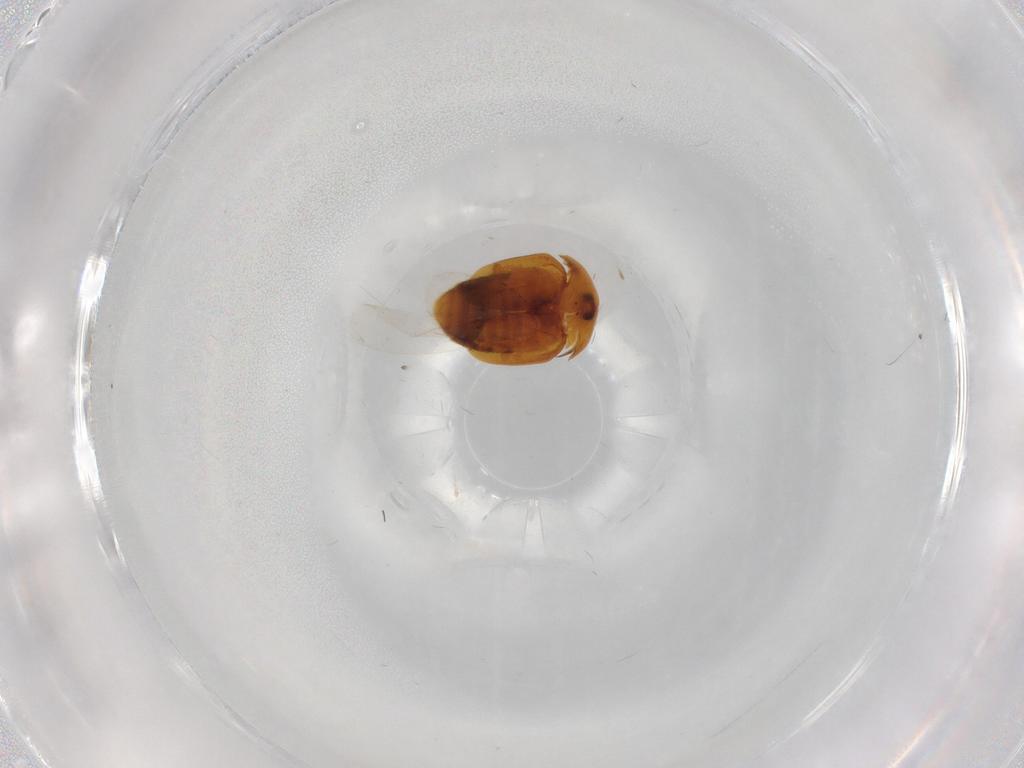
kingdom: Animalia
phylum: Arthropoda
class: Insecta
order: Coleoptera
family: Corylophidae
